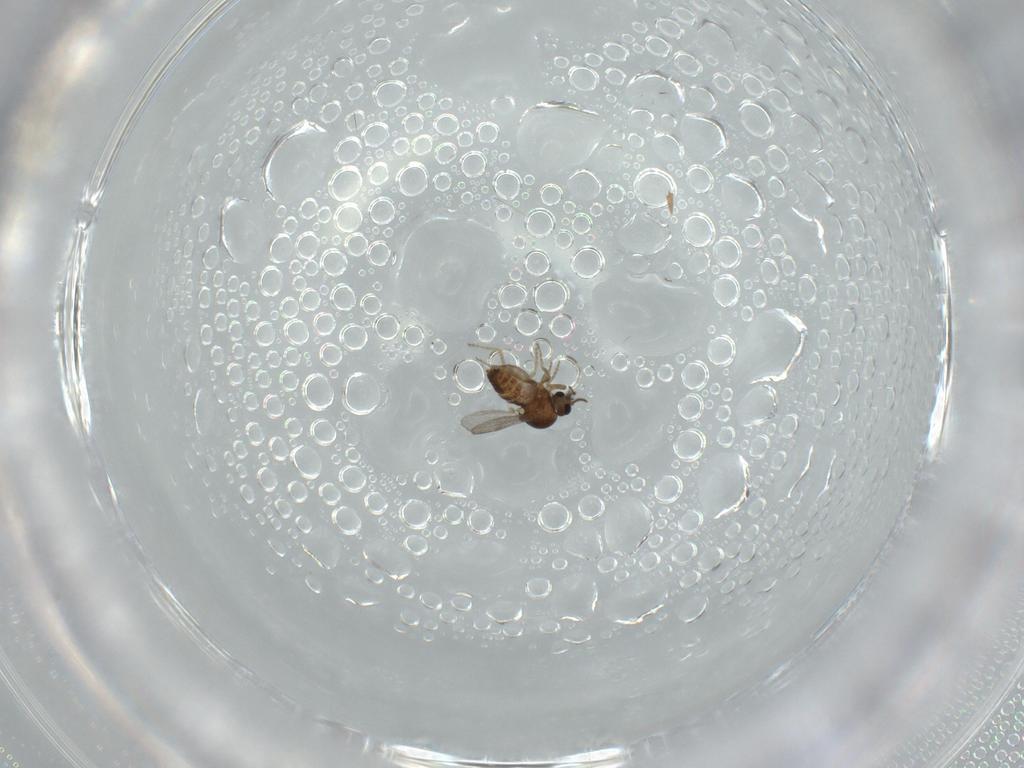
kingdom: Animalia
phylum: Arthropoda
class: Insecta
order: Diptera
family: Ceratopogonidae
